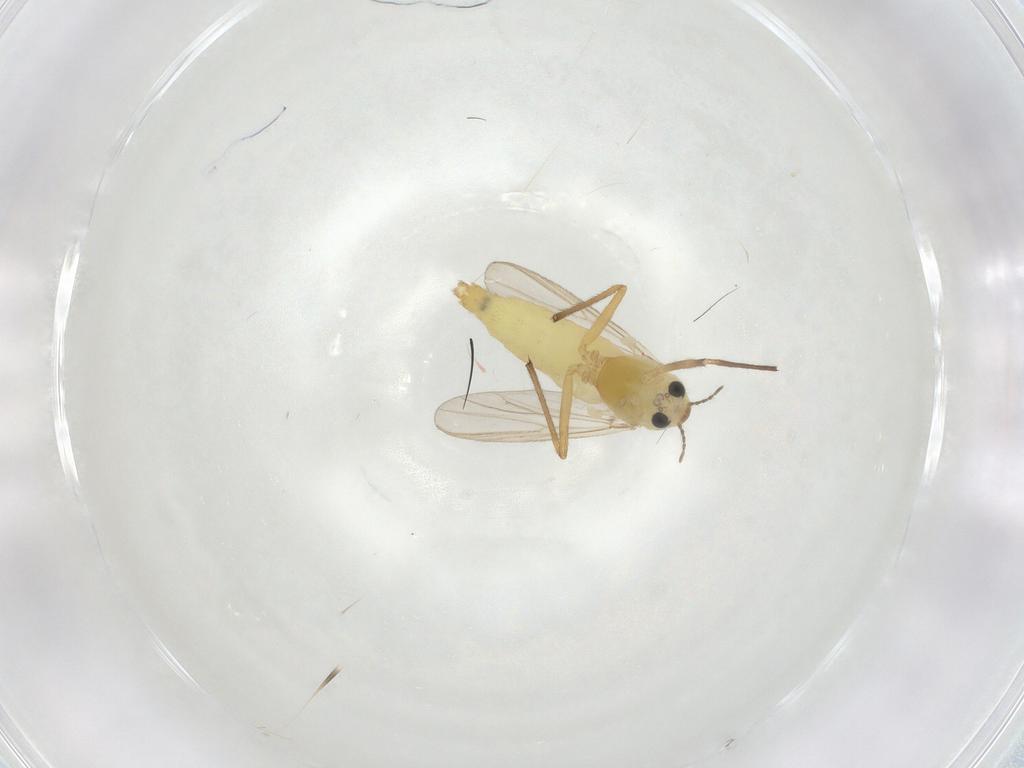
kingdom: Animalia
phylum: Arthropoda
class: Insecta
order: Diptera
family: Chironomidae
